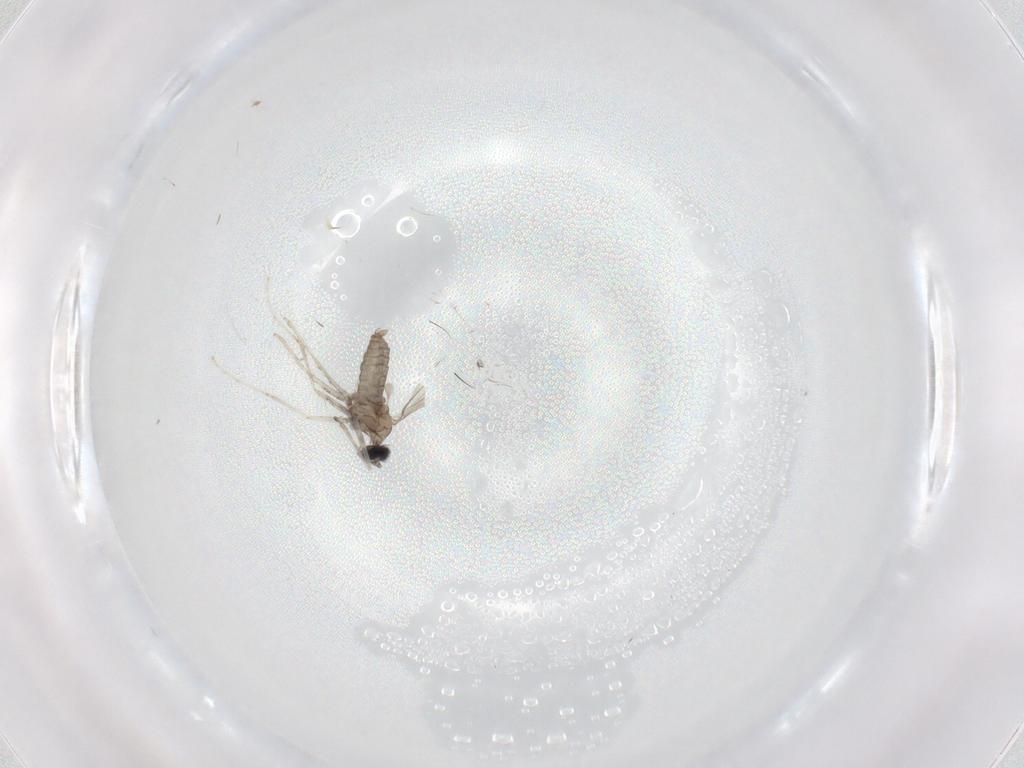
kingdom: Animalia
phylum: Arthropoda
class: Insecta
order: Diptera
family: Cecidomyiidae
